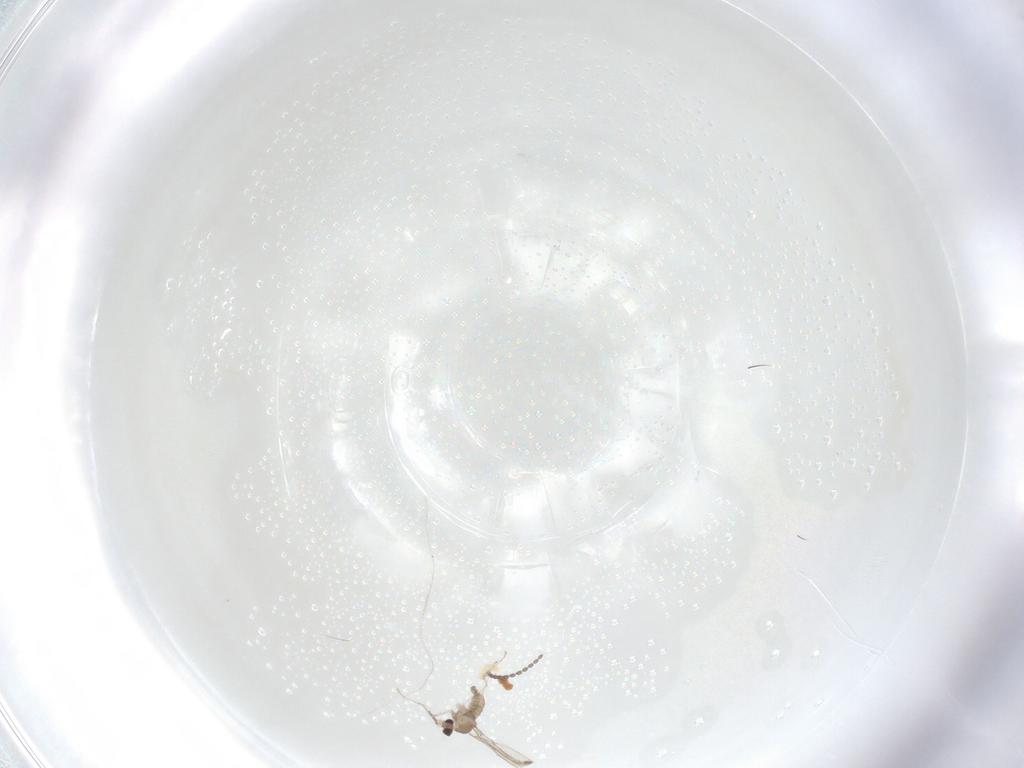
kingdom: Animalia
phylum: Arthropoda
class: Insecta
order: Diptera
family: Cecidomyiidae
